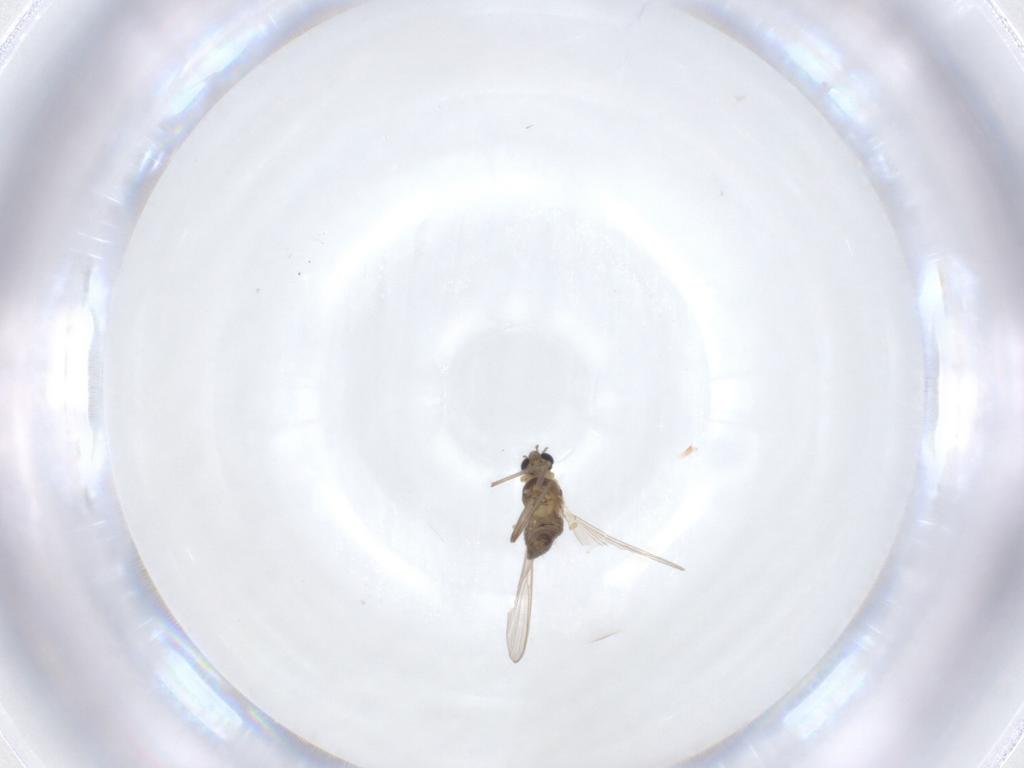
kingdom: Animalia
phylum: Arthropoda
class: Insecta
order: Diptera
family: Chironomidae
